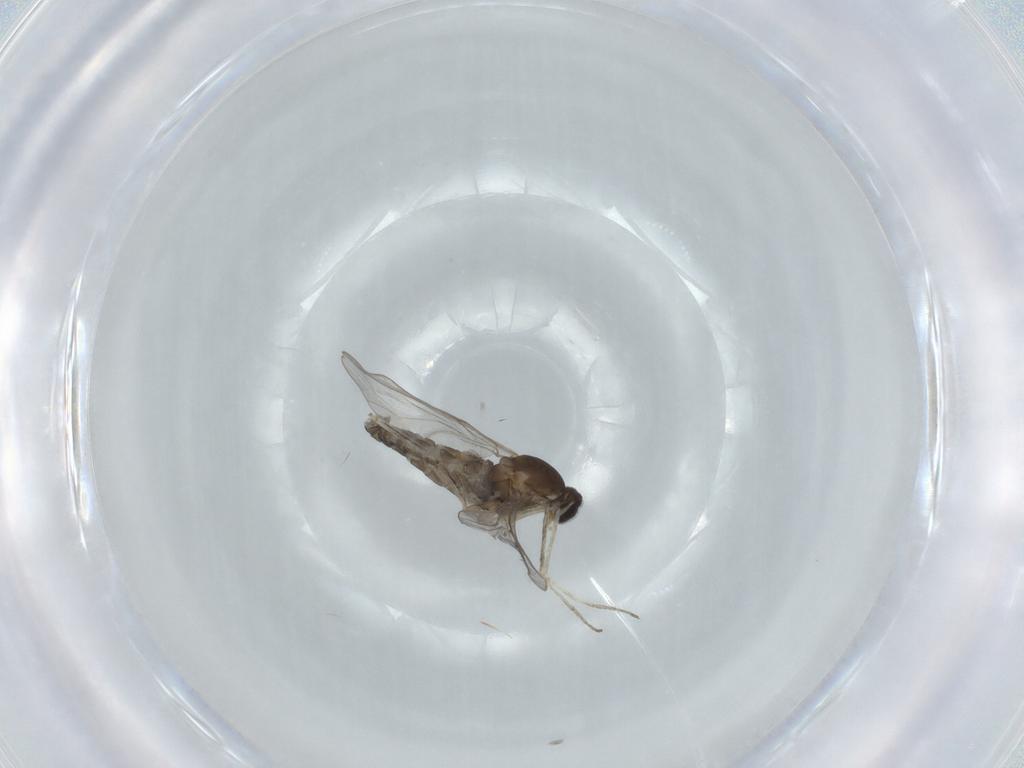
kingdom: Animalia
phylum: Arthropoda
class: Insecta
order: Diptera
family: Cecidomyiidae
